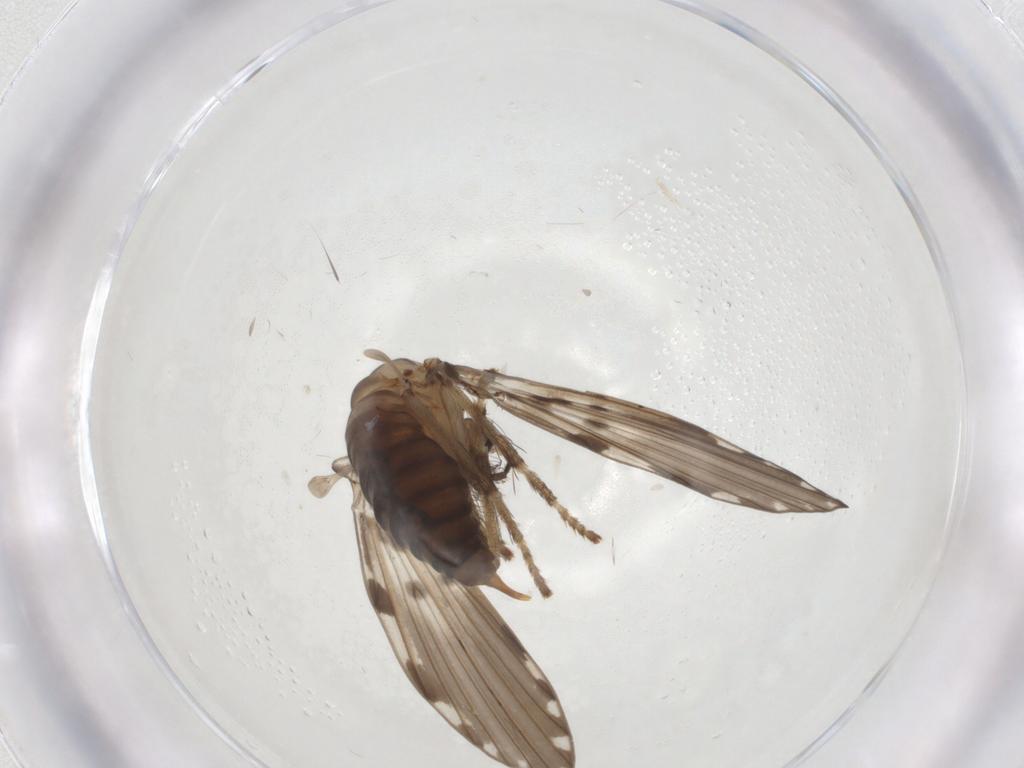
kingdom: Animalia
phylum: Arthropoda
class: Insecta
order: Diptera
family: Psychodidae
